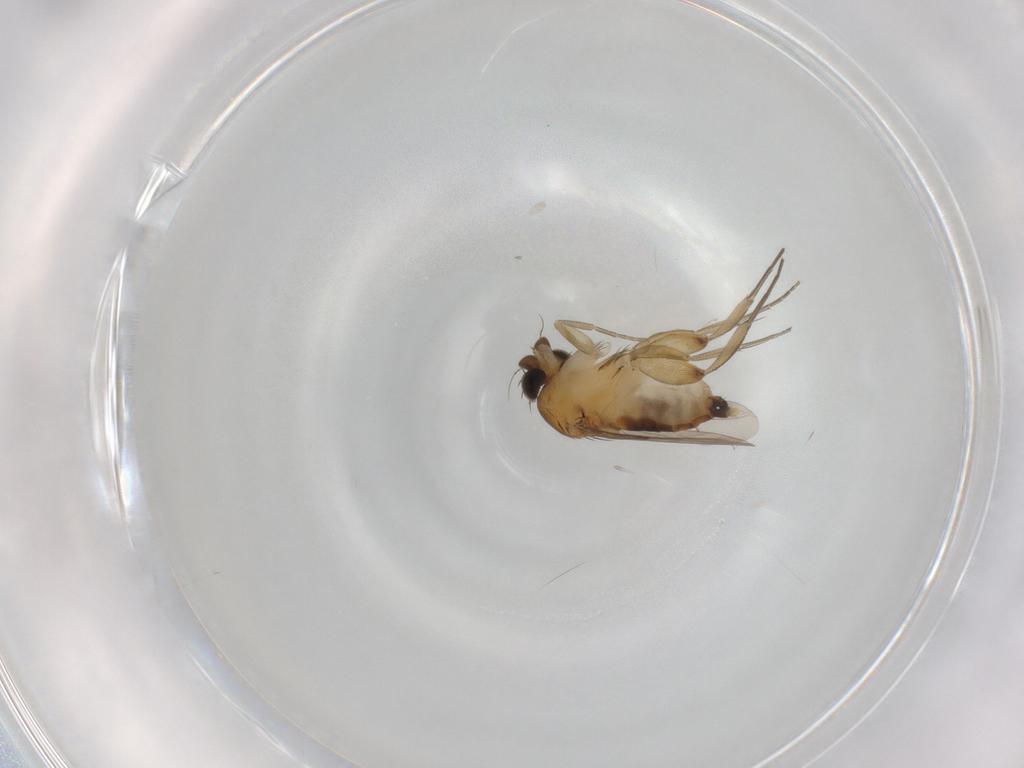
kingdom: Animalia
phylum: Arthropoda
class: Insecta
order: Diptera
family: Phoridae
